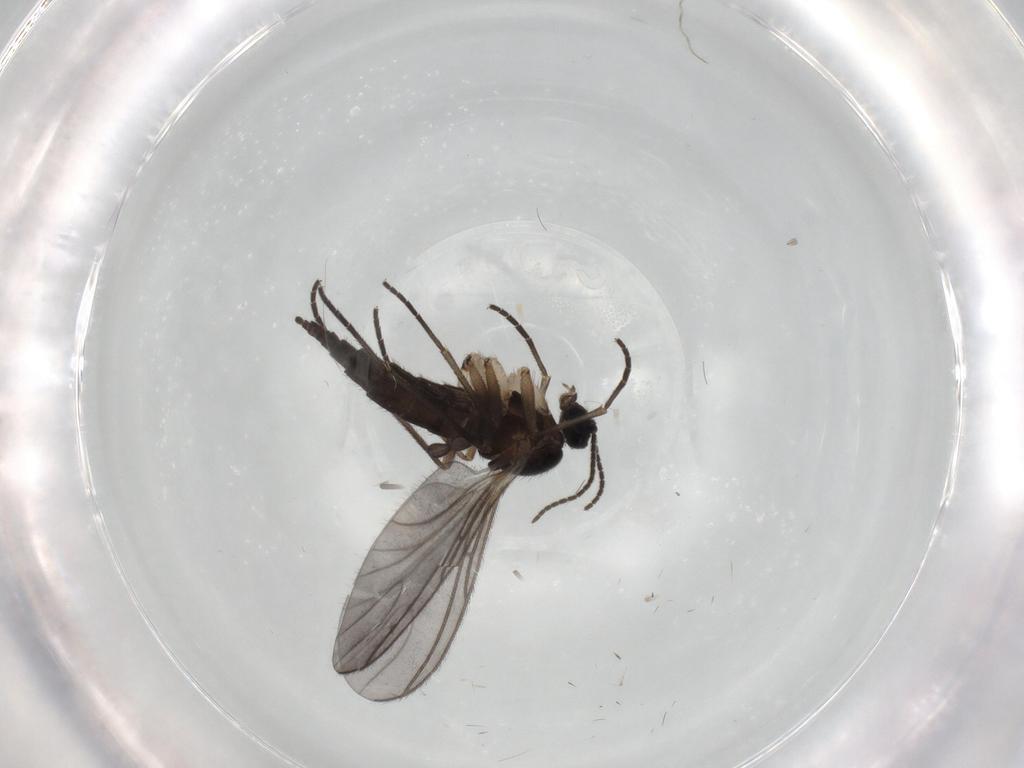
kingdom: Animalia
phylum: Arthropoda
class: Insecta
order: Diptera
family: Sciaridae
